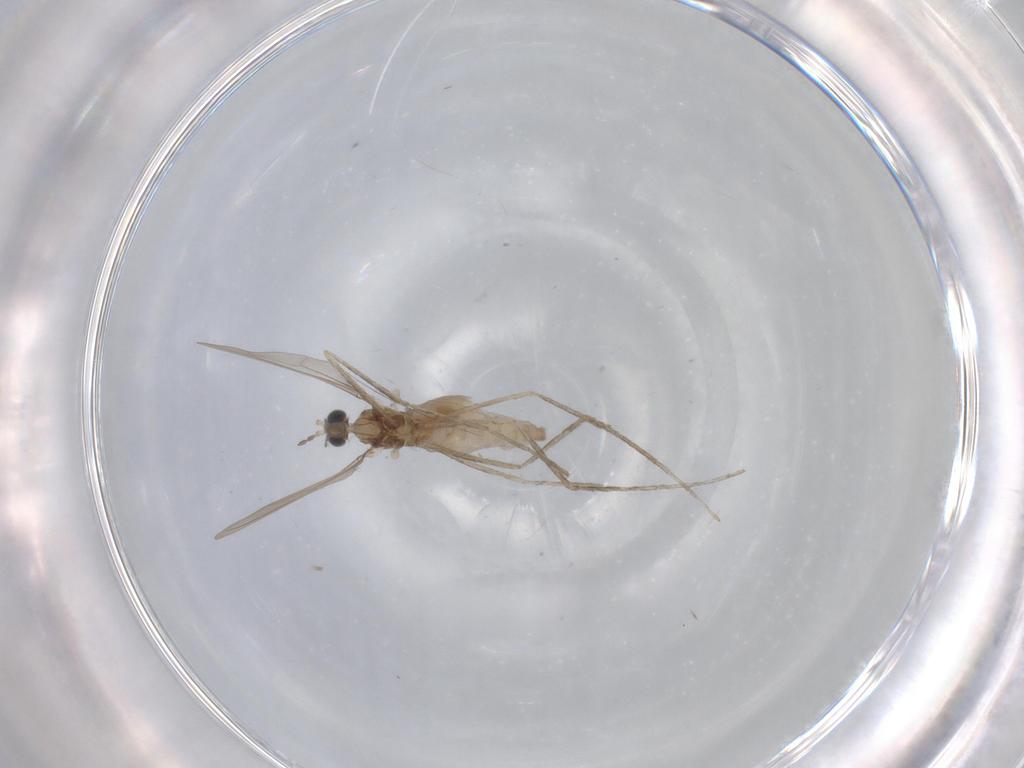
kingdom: Animalia
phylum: Arthropoda
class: Insecta
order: Diptera
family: Cecidomyiidae
